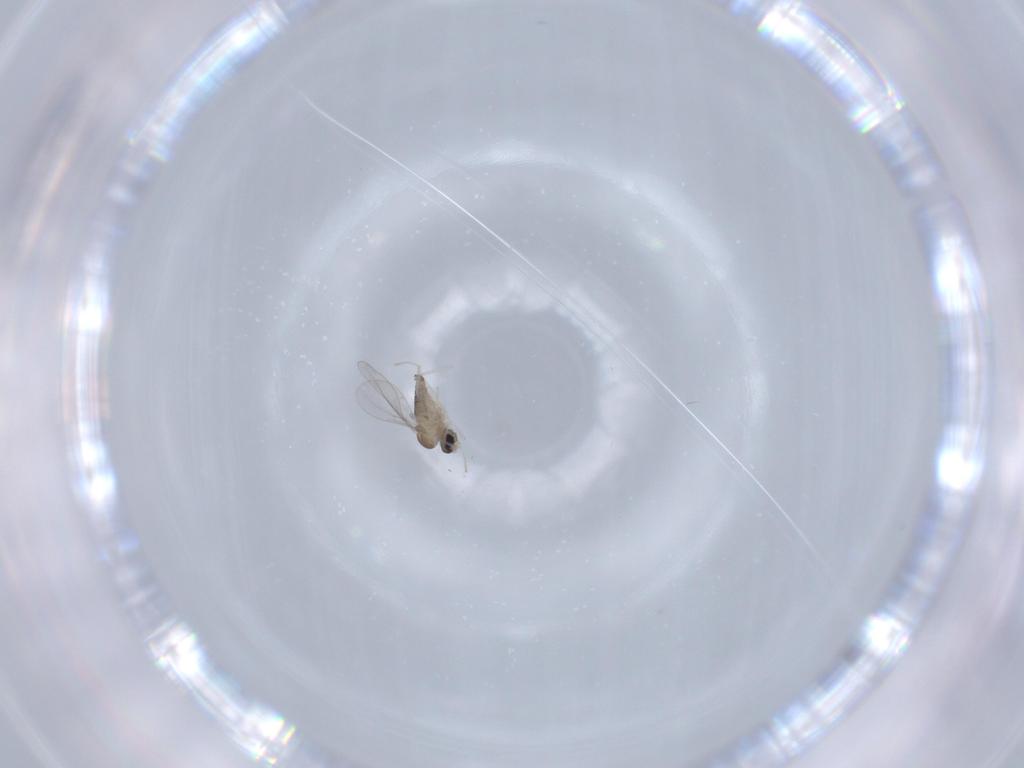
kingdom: Animalia
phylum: Arthropoda
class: Insecta
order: Diptera
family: Cecidomyiidae
